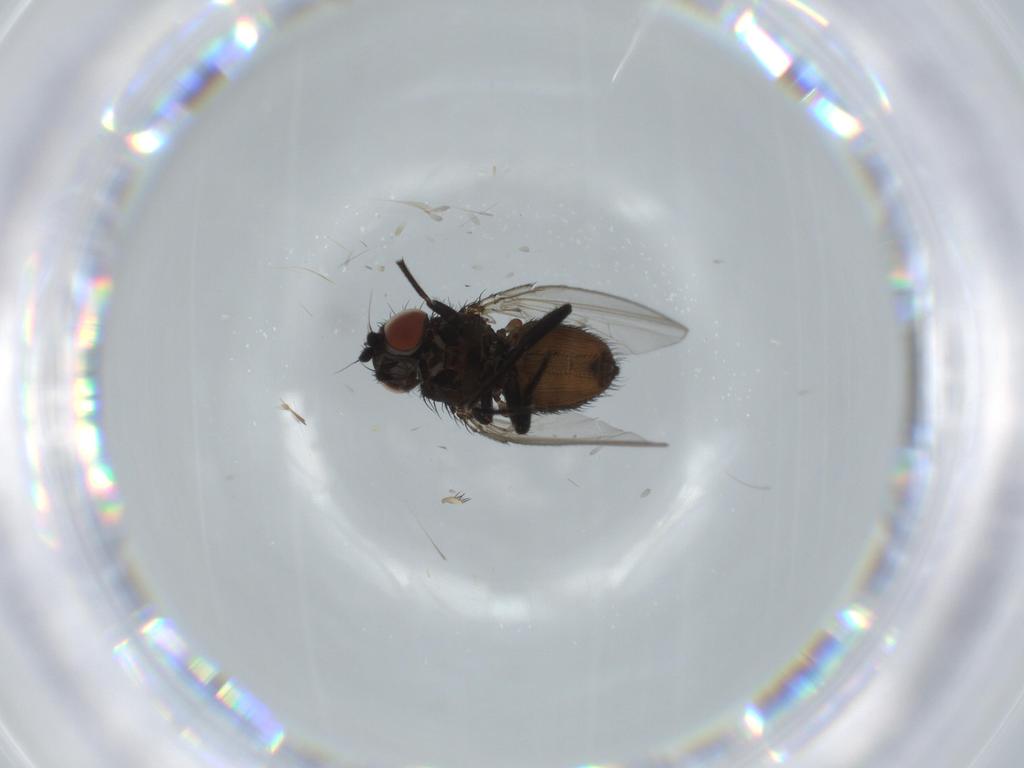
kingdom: Animalia
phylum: Arthropoda
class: Insecta
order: Diptera
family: Phoridae
